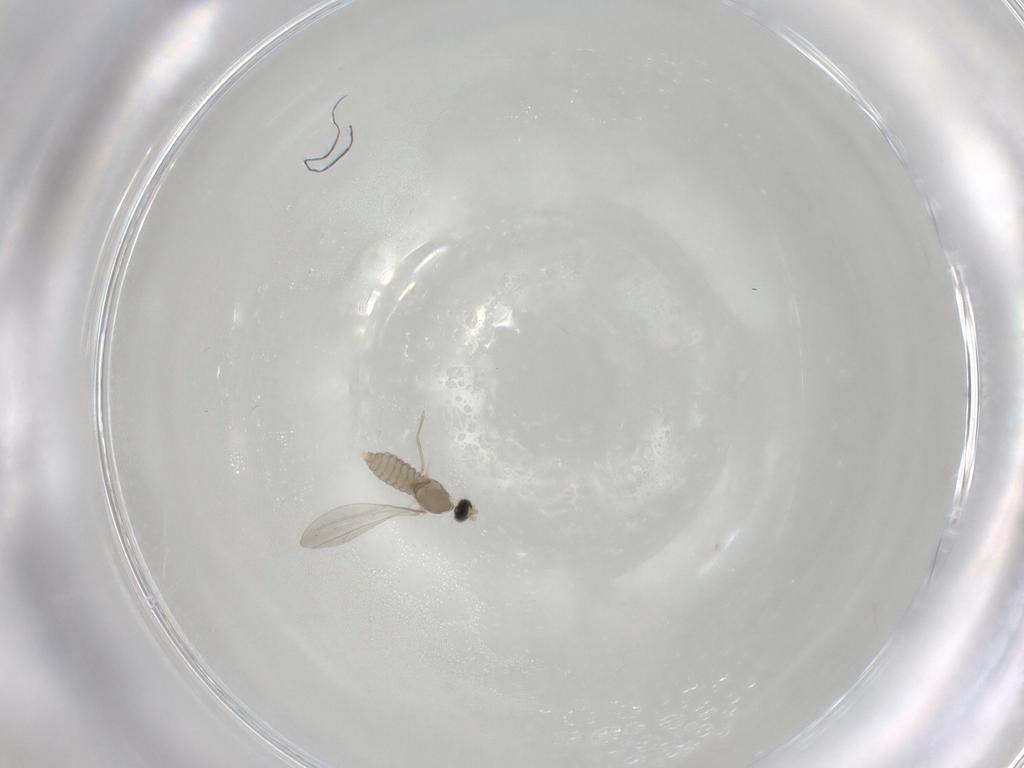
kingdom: Animalia
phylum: Arthropoda
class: Insecta
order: Diptera
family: Cecidomyiidae
